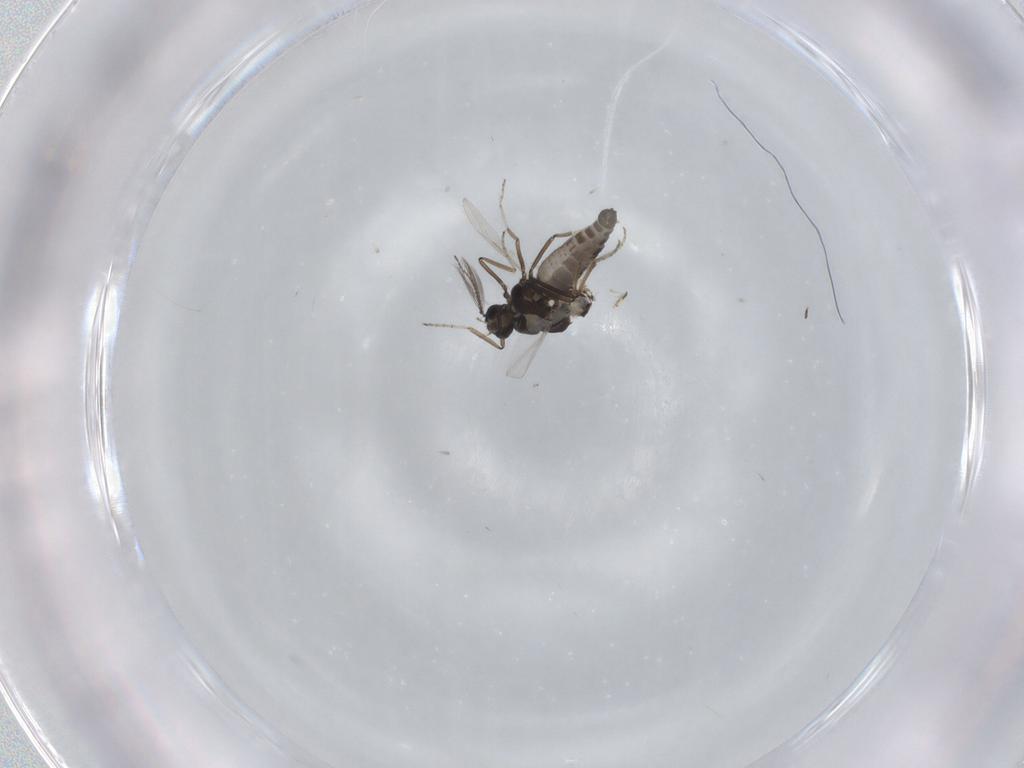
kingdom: Animalia
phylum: Arthropoda
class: Insecta
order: Diptera
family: Ceratopogonidae
